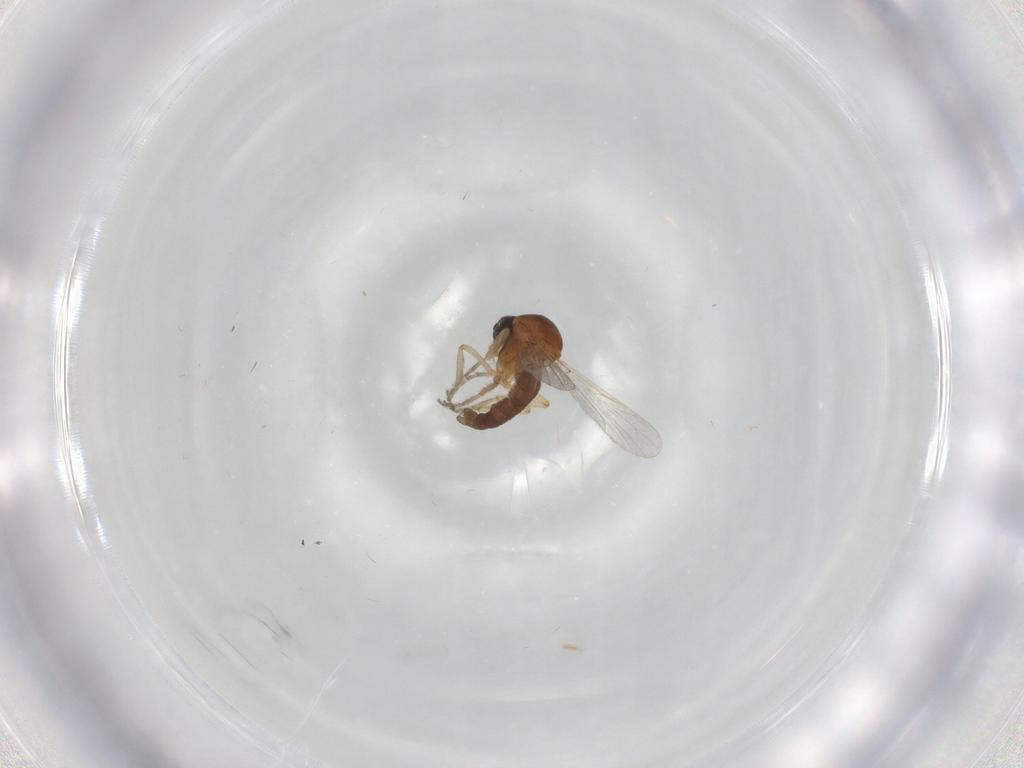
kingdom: Animalia
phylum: Arthropoda
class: Insecta
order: Diptera
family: Ceratopogonidae
